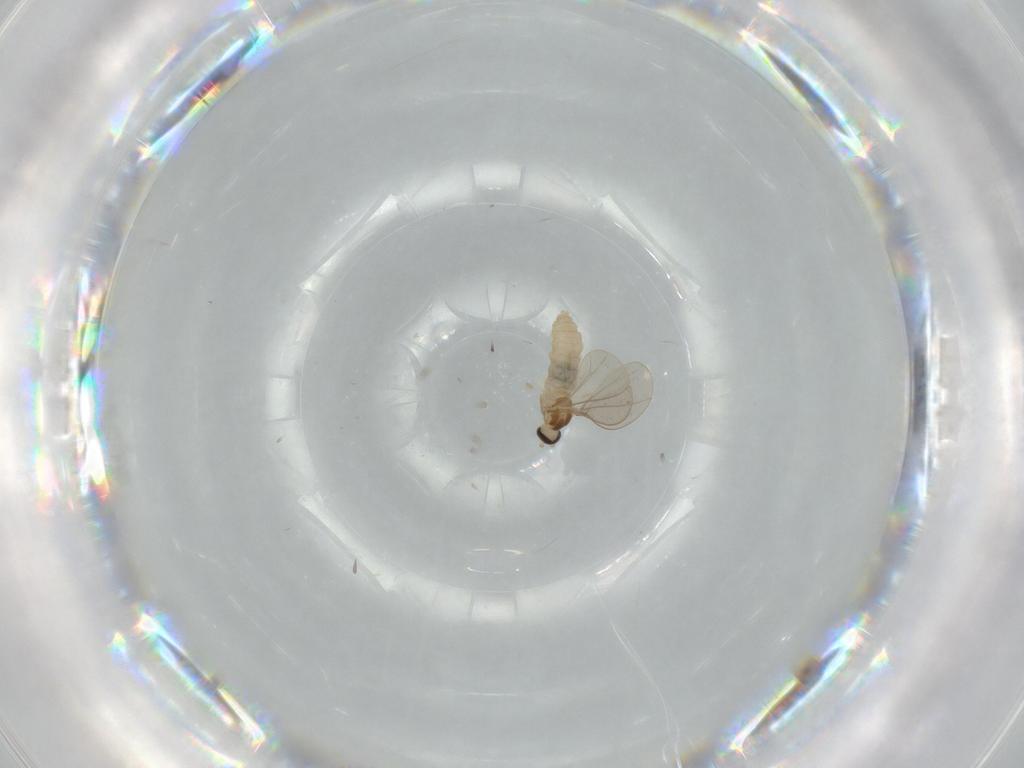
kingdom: Animalia
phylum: Arthropoda
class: Insecta
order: Diptera
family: Cecidomyiidae
